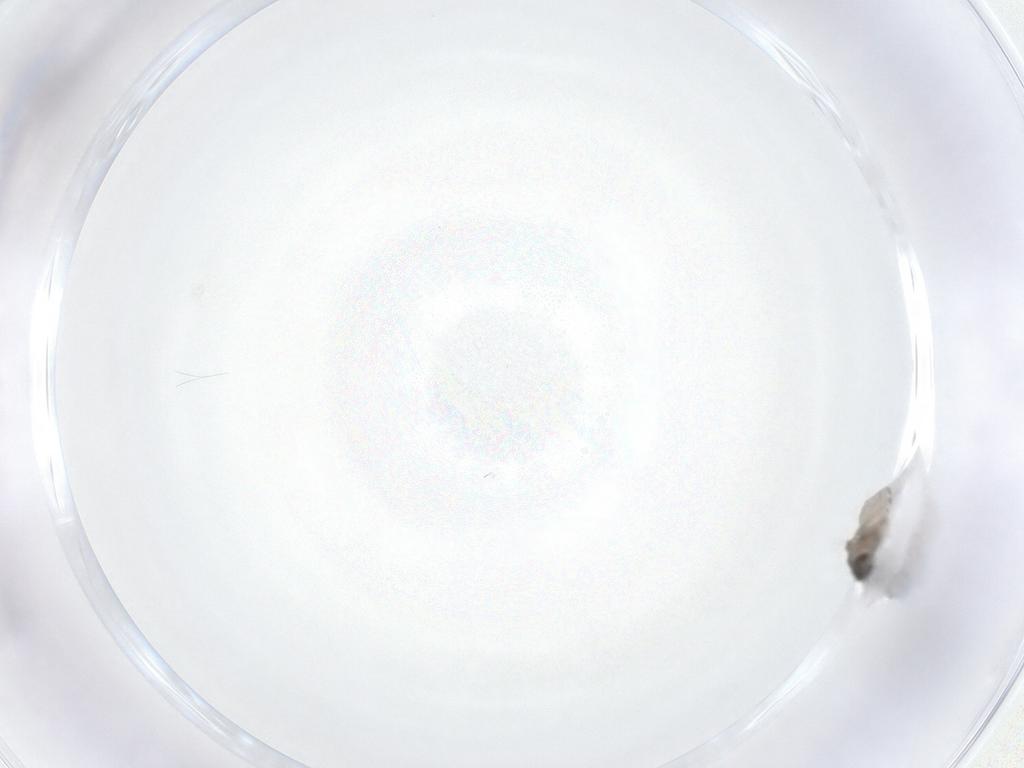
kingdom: Animalia
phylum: Arthropoda
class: Insecta
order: Diptera
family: Cecidomyiidae
